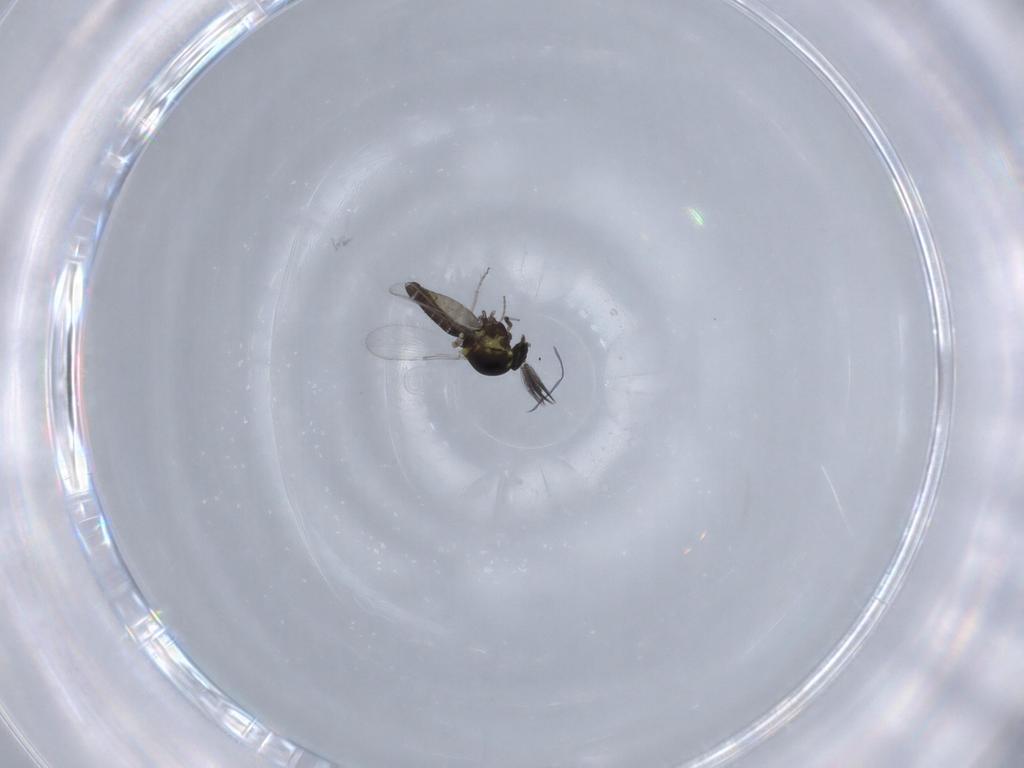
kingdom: Animalia
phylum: Arthropoda
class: Insecta
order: Diptera
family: Ceratopogonidae
